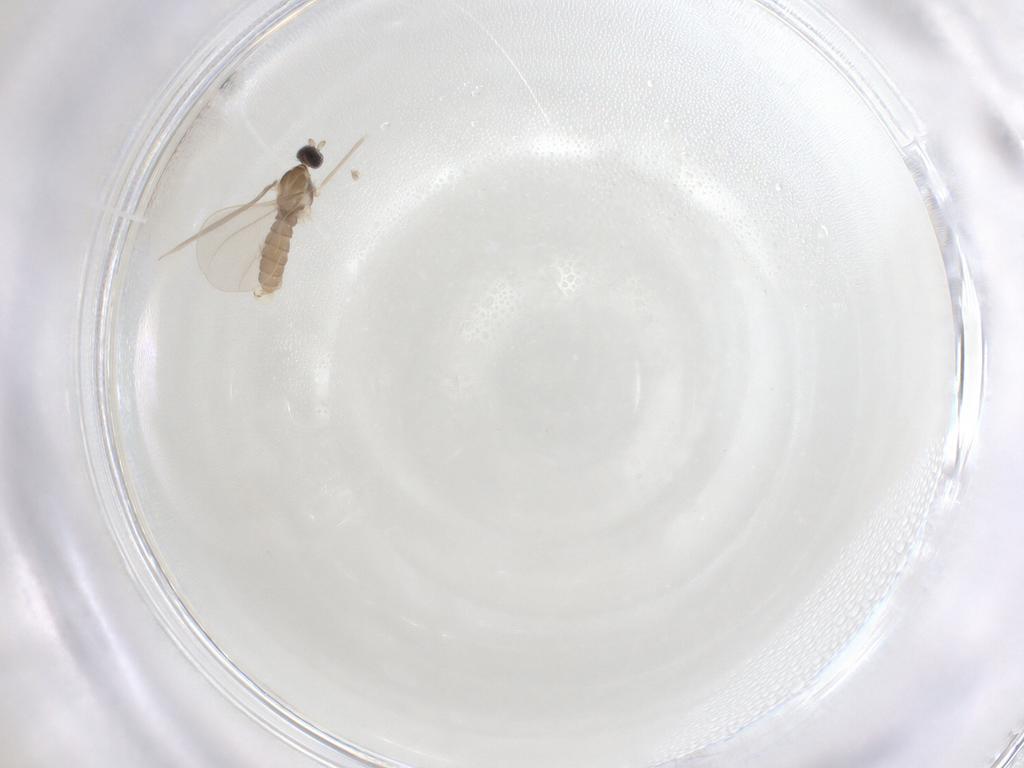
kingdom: Animalia
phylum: Arthropoda
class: Insecta
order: Diptera
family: Cecidomyiidae
